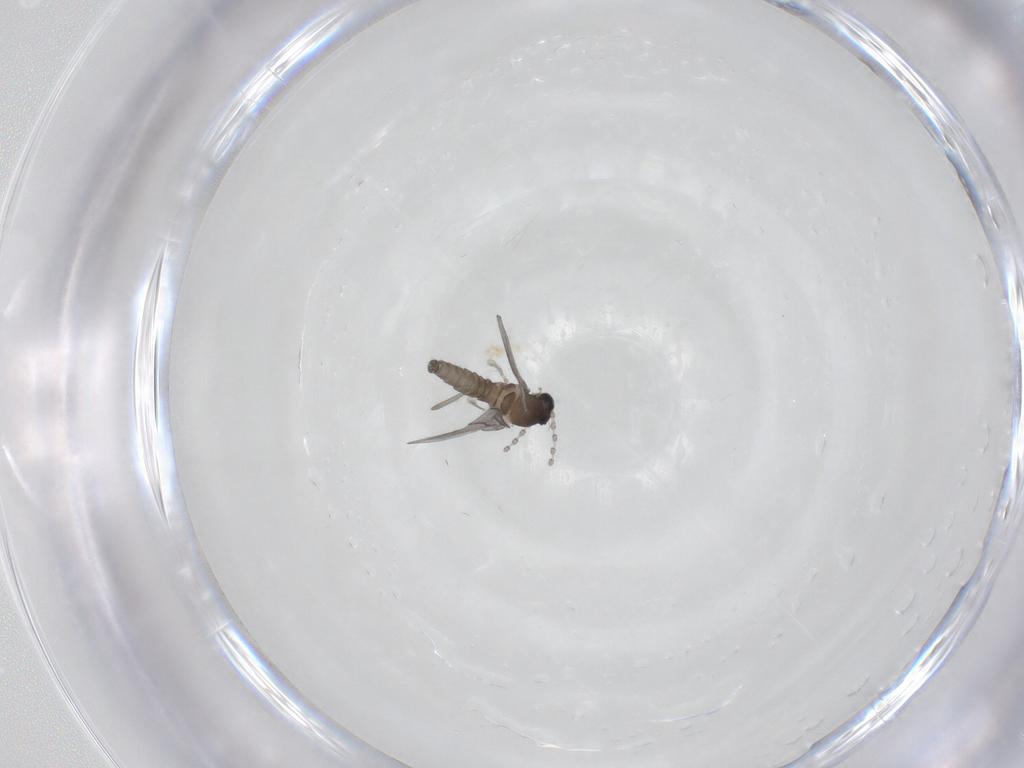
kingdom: Animalia
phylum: Arthropoda
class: Insecta
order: Diptera
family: Cecidomyiidae
